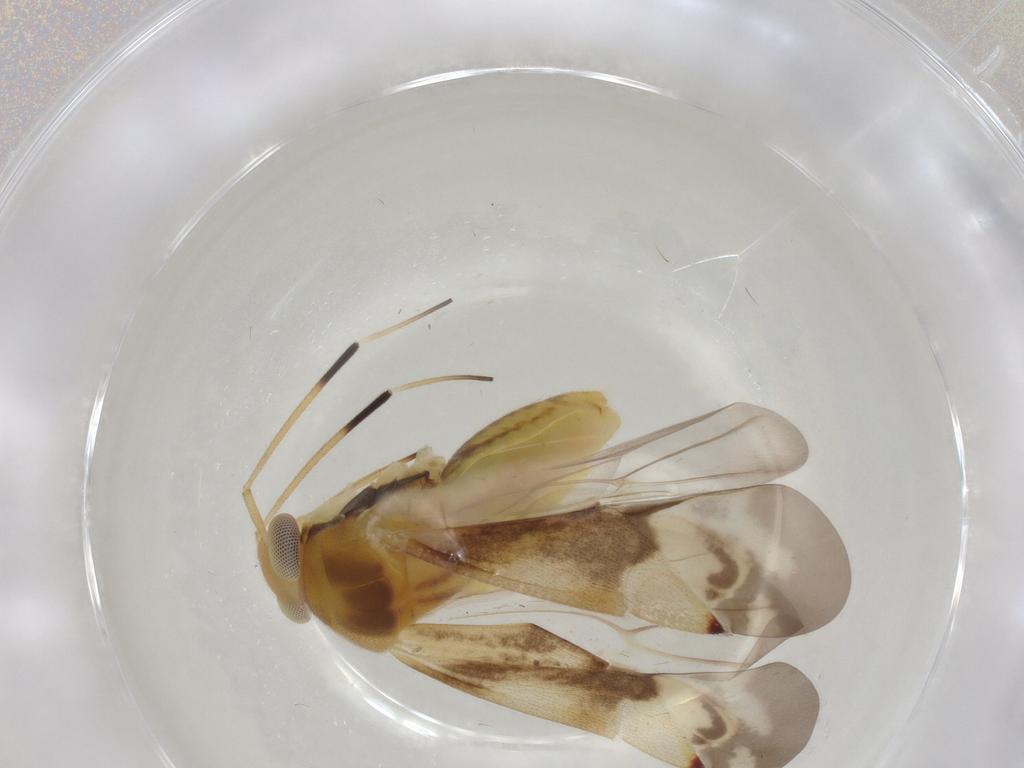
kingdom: Animalia
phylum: Arthropoda
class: Insecta
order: Hemiptera
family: Miridae
